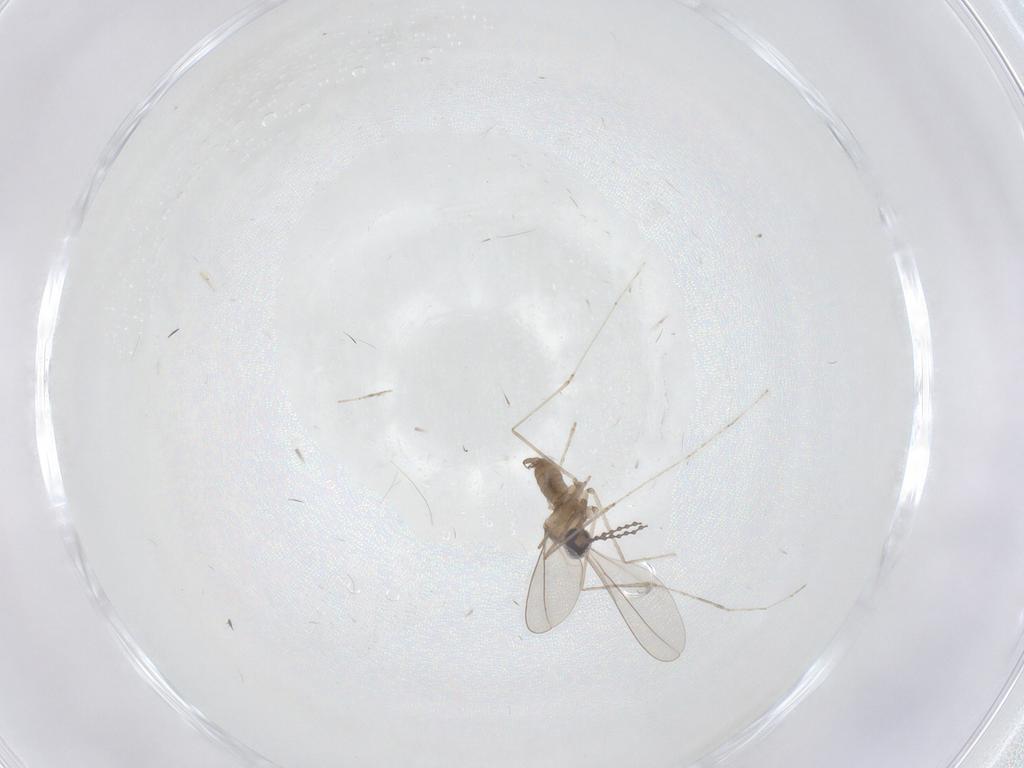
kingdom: Animalia
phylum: Arthropoda
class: Insecta
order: Diptera
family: Cecidomyiidae
